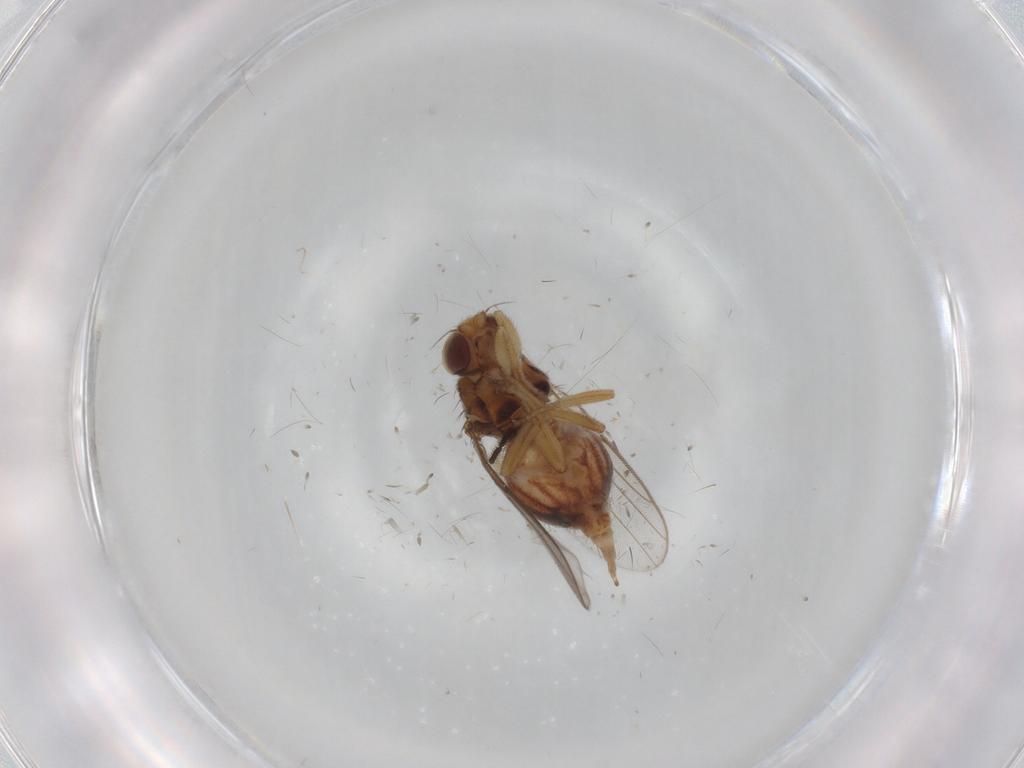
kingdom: Animalia
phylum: Arthropoda
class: Insecta
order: Diptera
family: Chloropidae
